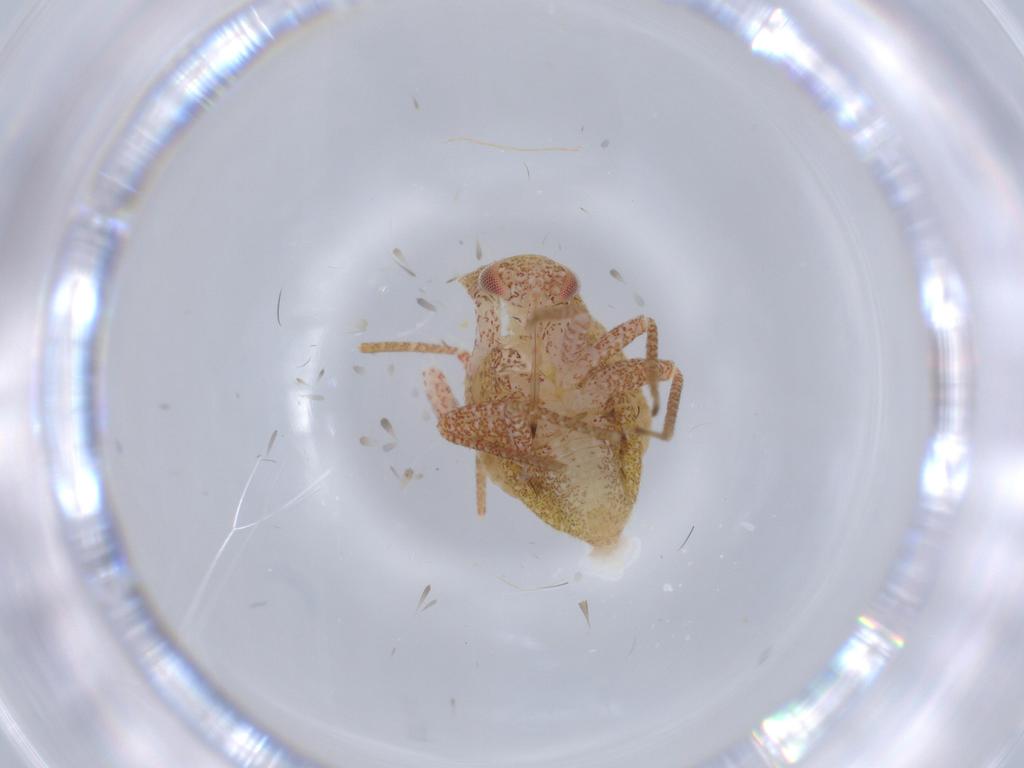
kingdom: Animalia
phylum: Arthropoda
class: Insecta
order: Hemiptera
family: Miridae
